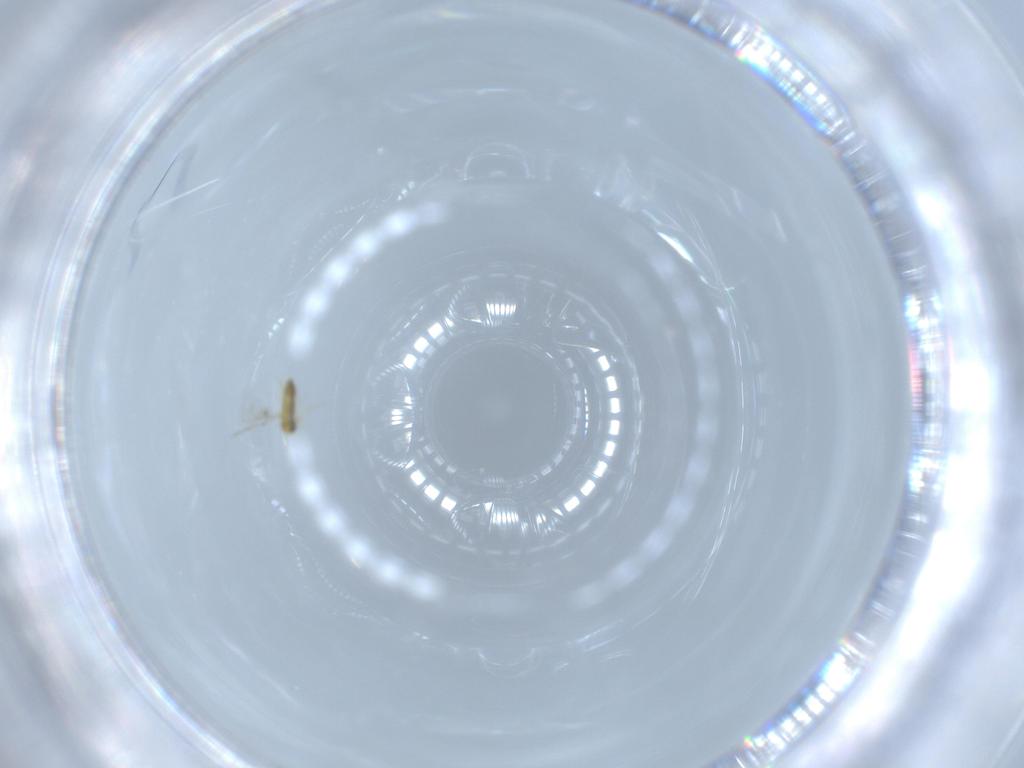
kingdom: Animalia
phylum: Arthropoda
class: Insecta
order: Hymenoptera
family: Trichogrammatidae
